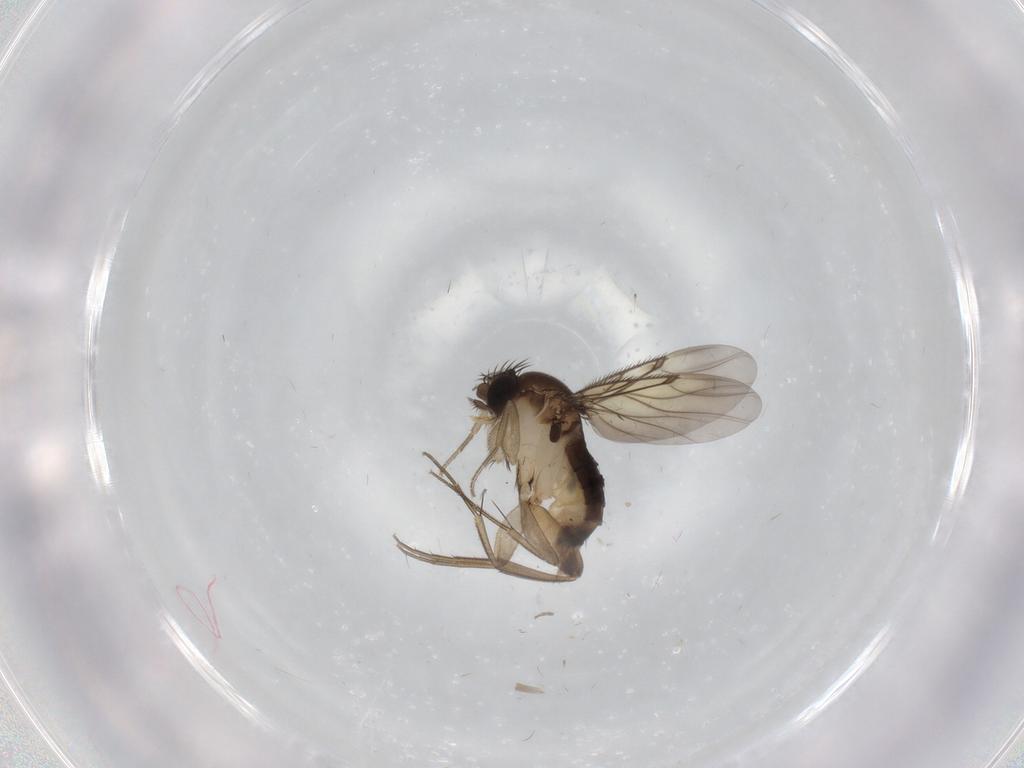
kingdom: Animalia
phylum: Arthropoda
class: Insecta
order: Diptera
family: Phoridae
